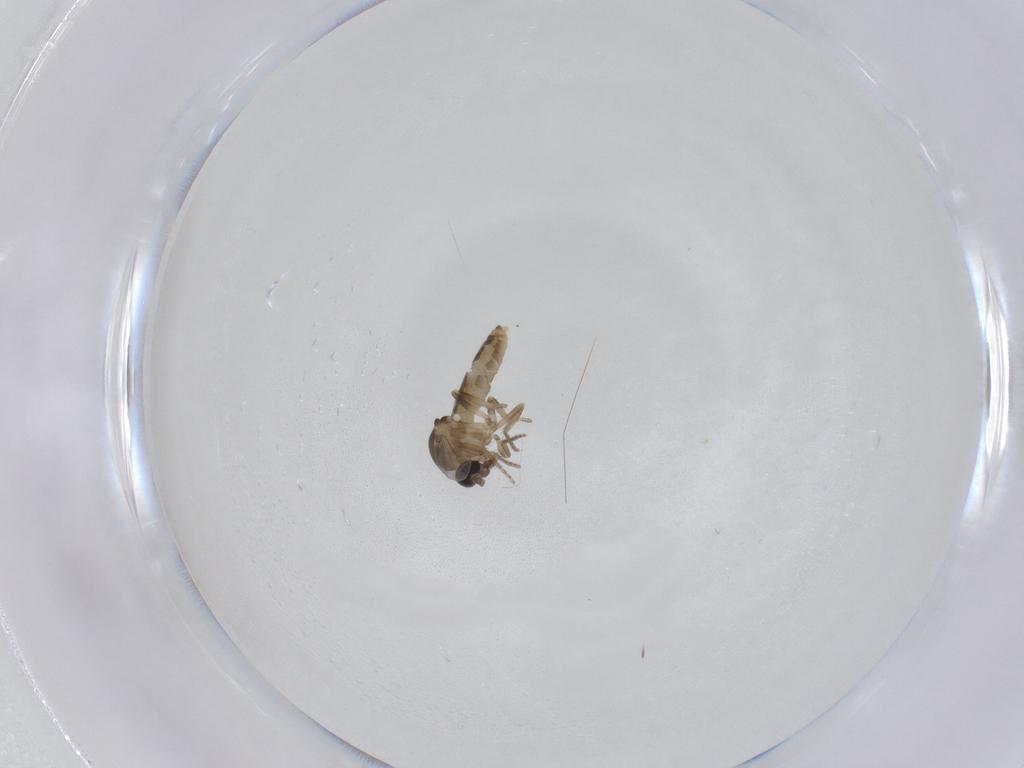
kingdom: Animalia
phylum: Arthropoda
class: Insecta
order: Diptera
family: Ceratopogonidae
